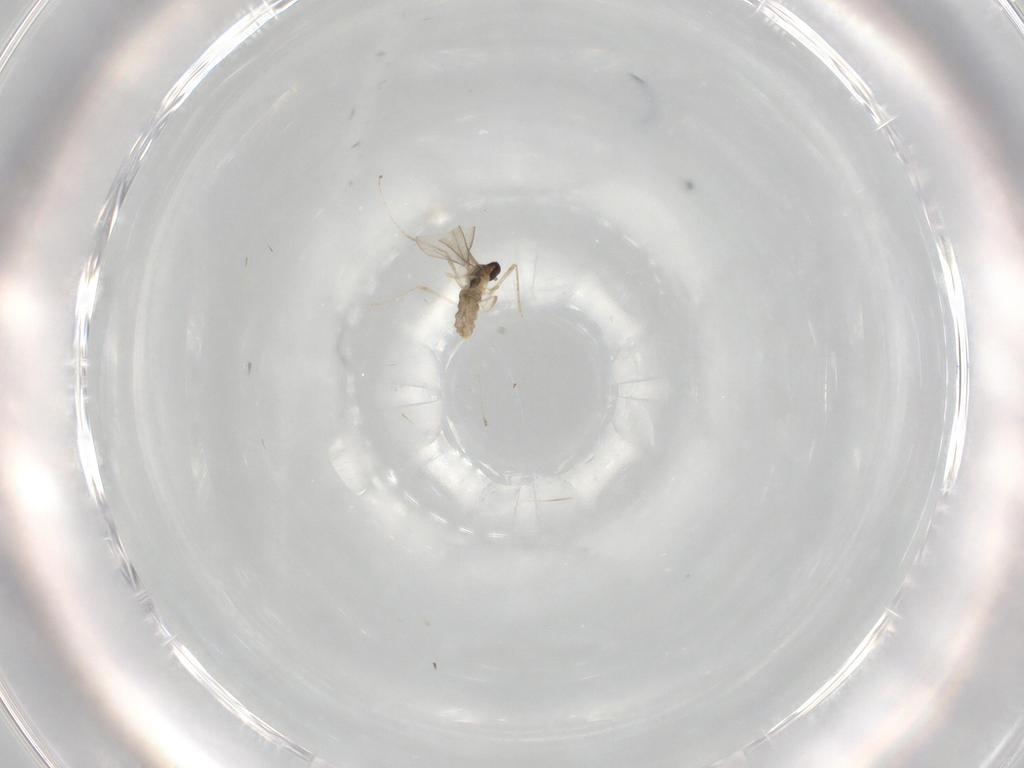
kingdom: Animalia
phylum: Arthropoda
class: Insecta
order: Diptera
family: Cecidomyiidae
